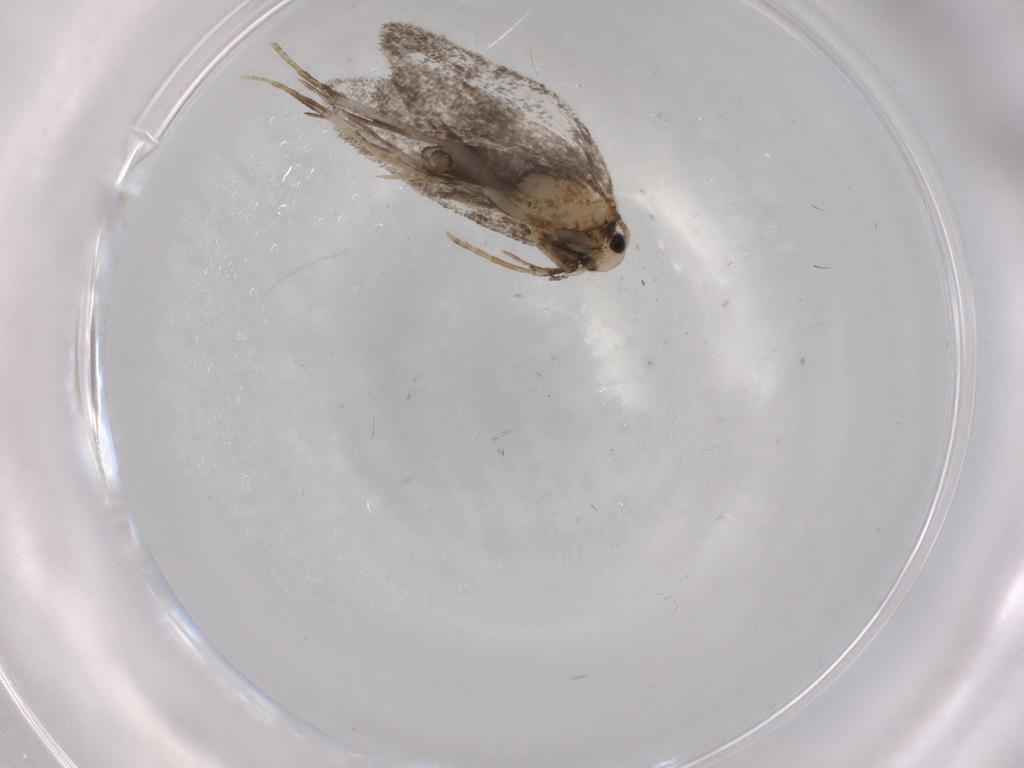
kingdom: Animalia
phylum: Arthropoda
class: Insecta
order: Lepidoptera
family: Psychidae
